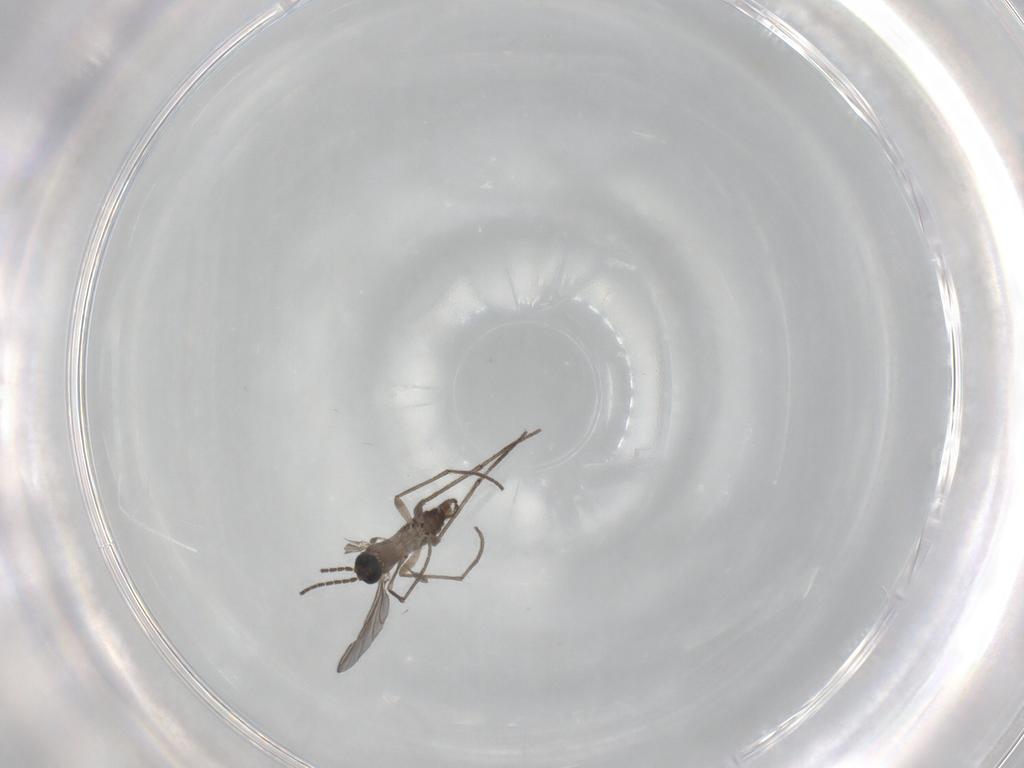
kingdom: Animalia
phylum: Arthropoda
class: Insecta
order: Diptera
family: Sciaridae
